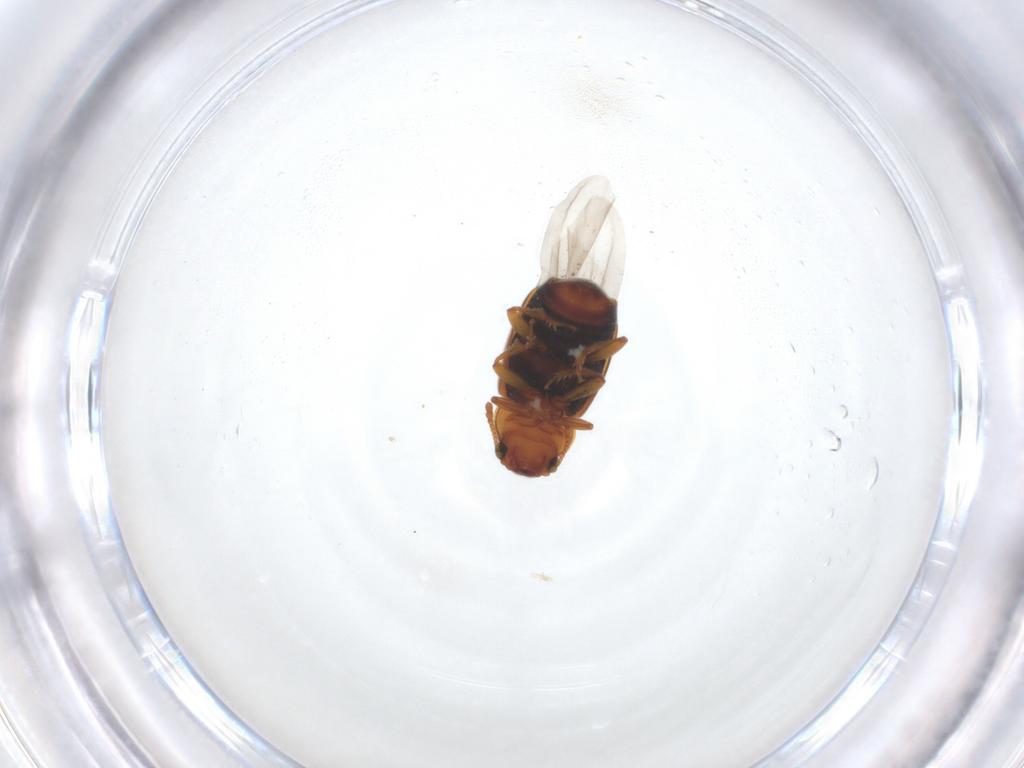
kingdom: Animalia
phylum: Arthropoda
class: Insecta
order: Coleoptera
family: Kateretidae
